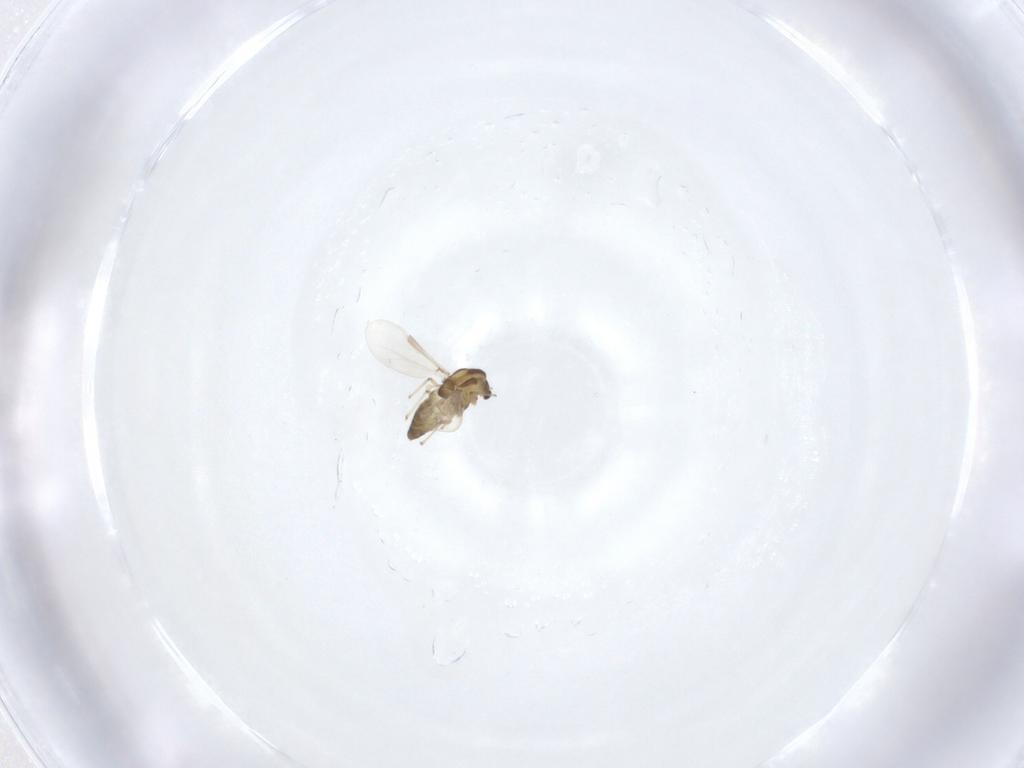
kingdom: Animalia
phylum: Arthropoda
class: Insecta
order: Diptera
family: Chironomidae
